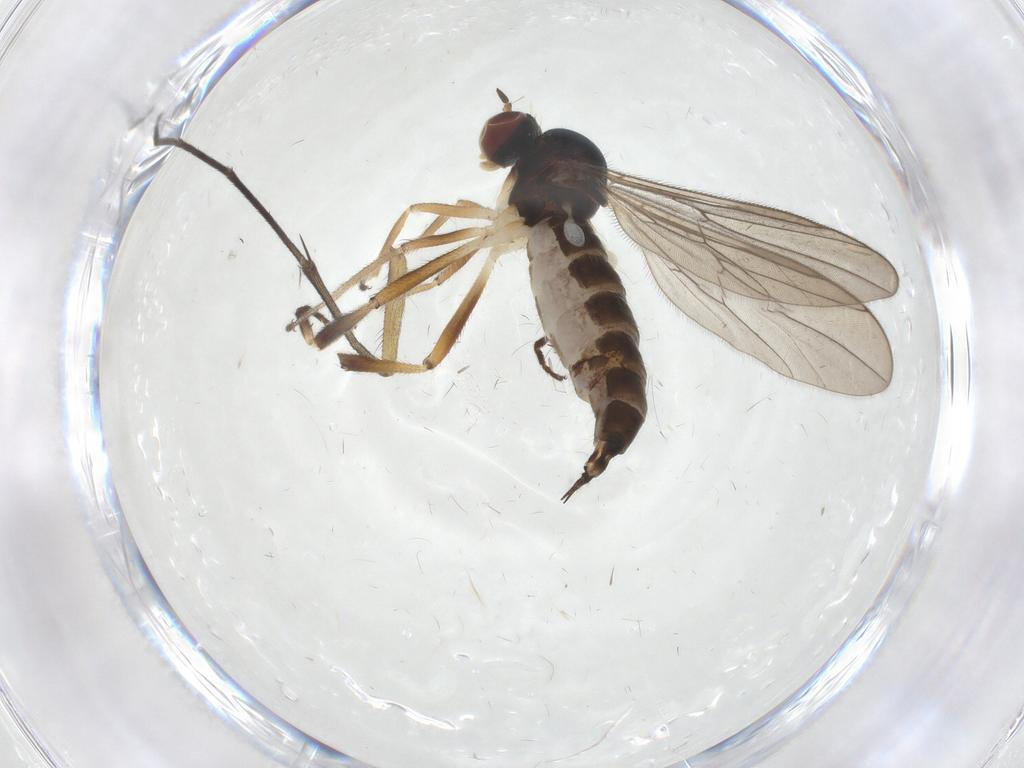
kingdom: Animalia
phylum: Arthropoda
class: Insecta
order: Diptera
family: Hybotidae
